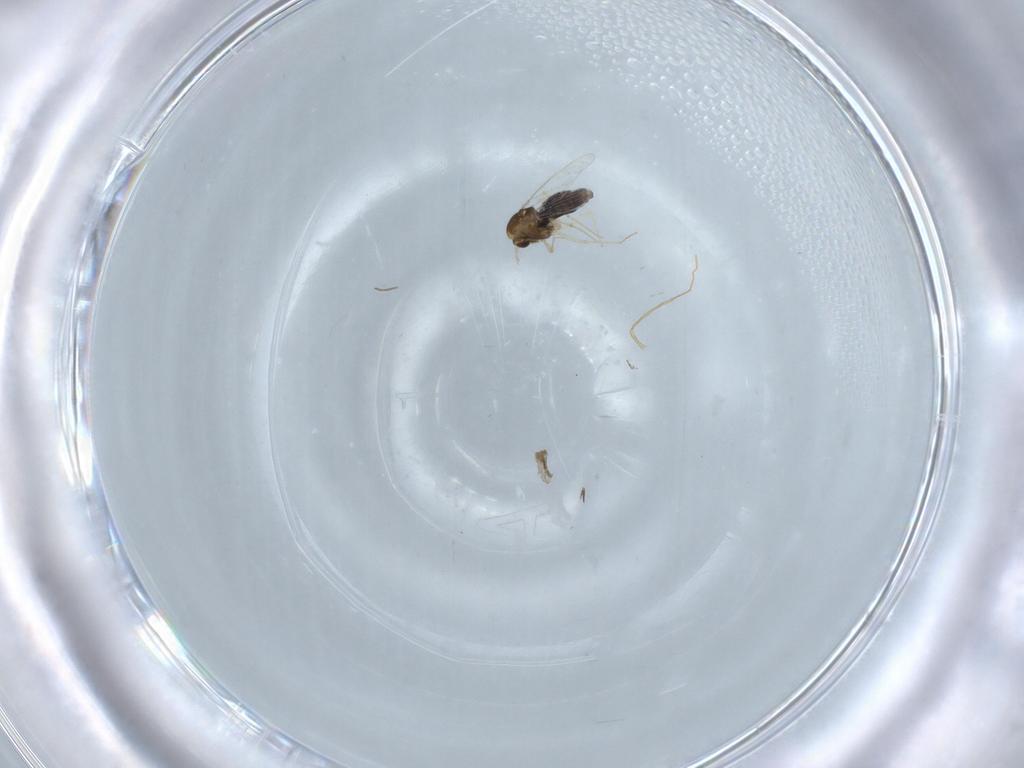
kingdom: Animalia
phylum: Arthropoda
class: Insecta
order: Diptera
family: Chironomidae
